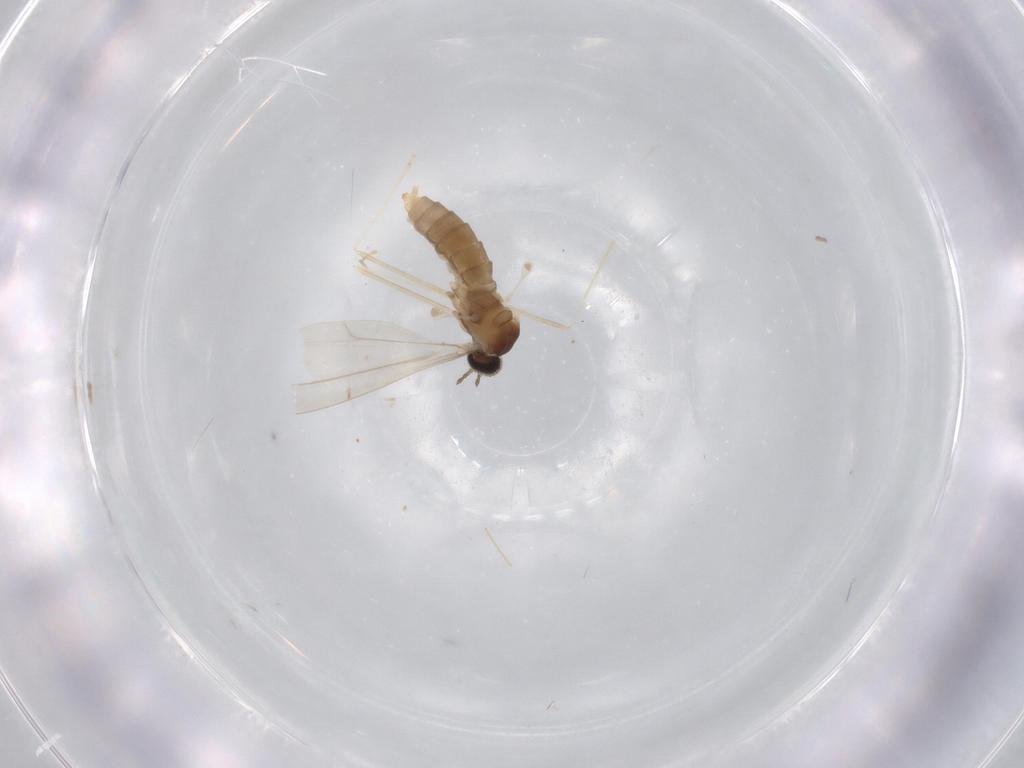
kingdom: Animalia
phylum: Arthropoda
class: Insecta
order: Diptera
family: Cecidomyiidae
